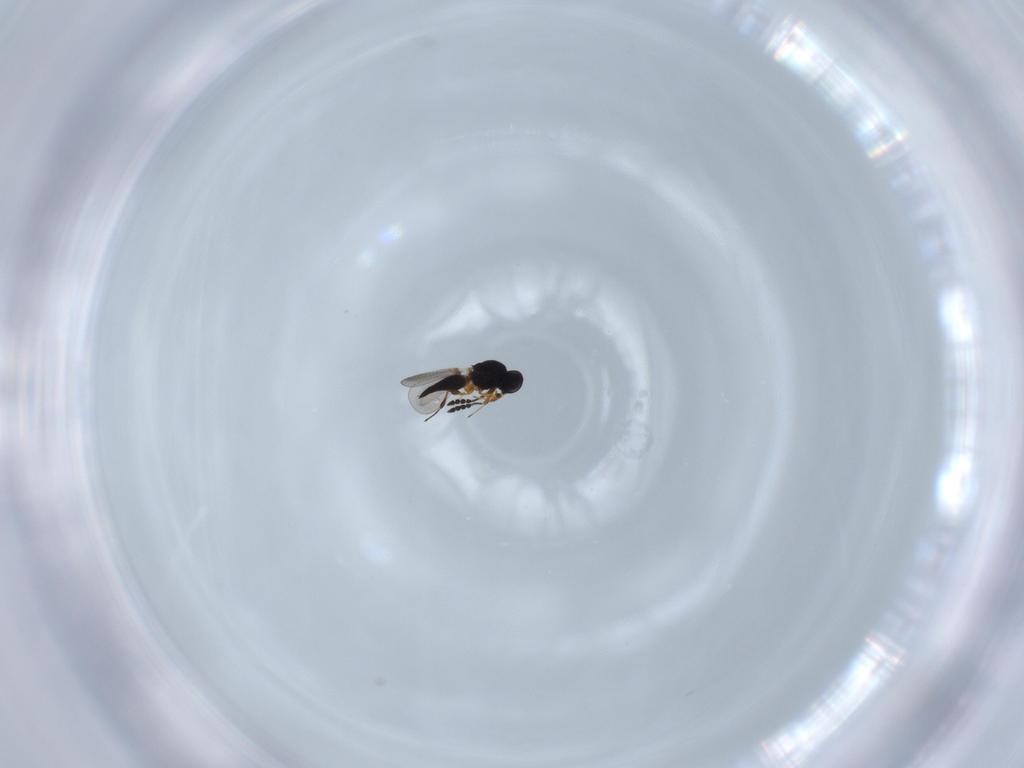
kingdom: Animalia
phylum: Arthropoda
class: Insecta
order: Hymenoptera
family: Platygastridae
